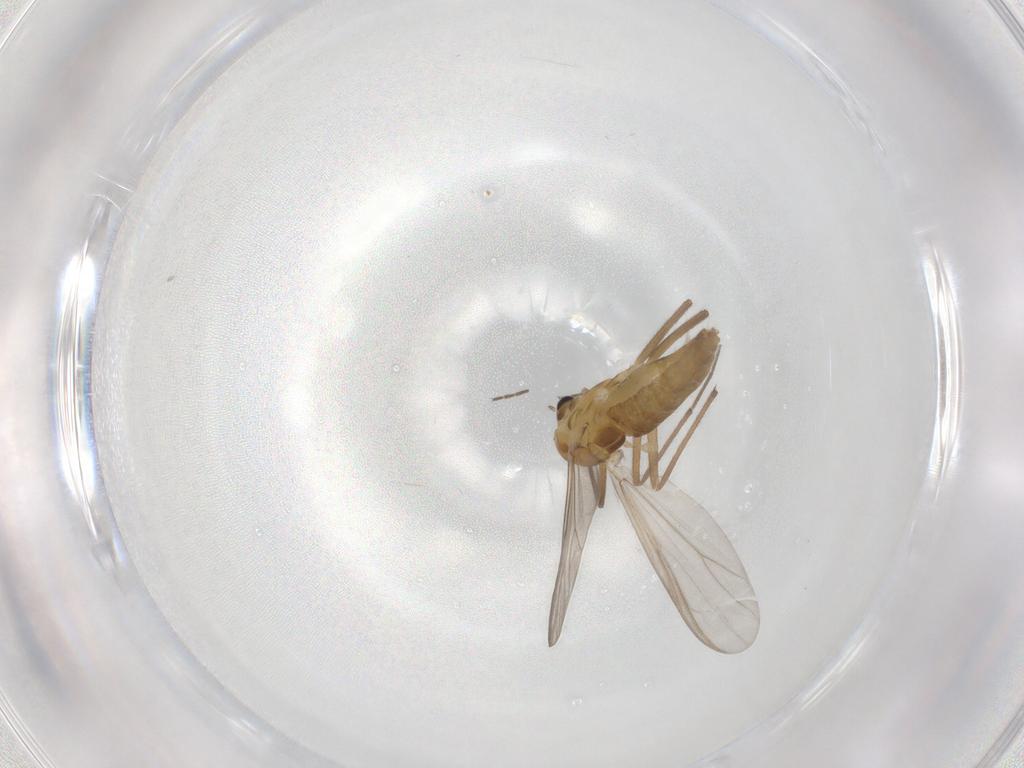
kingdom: Animalia
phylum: Arthropoda
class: Insecta
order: Diptera
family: Chironomidae
